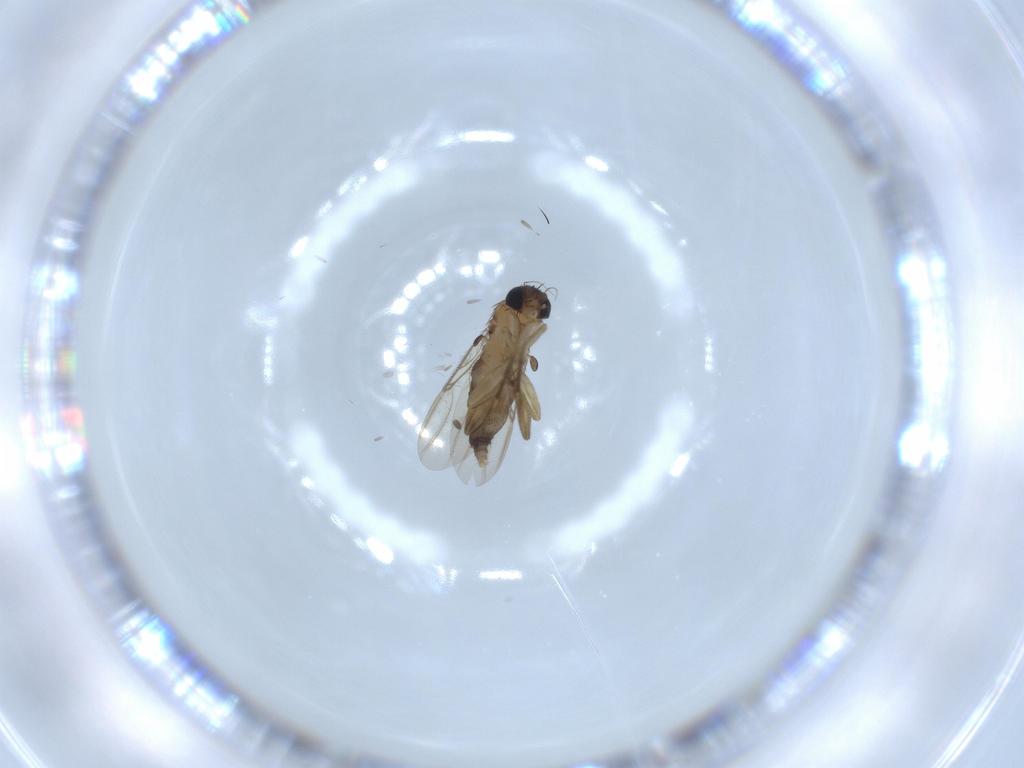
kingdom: Animalia
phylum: Arthropoda
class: Insecta
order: Diptera
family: Phoridae
